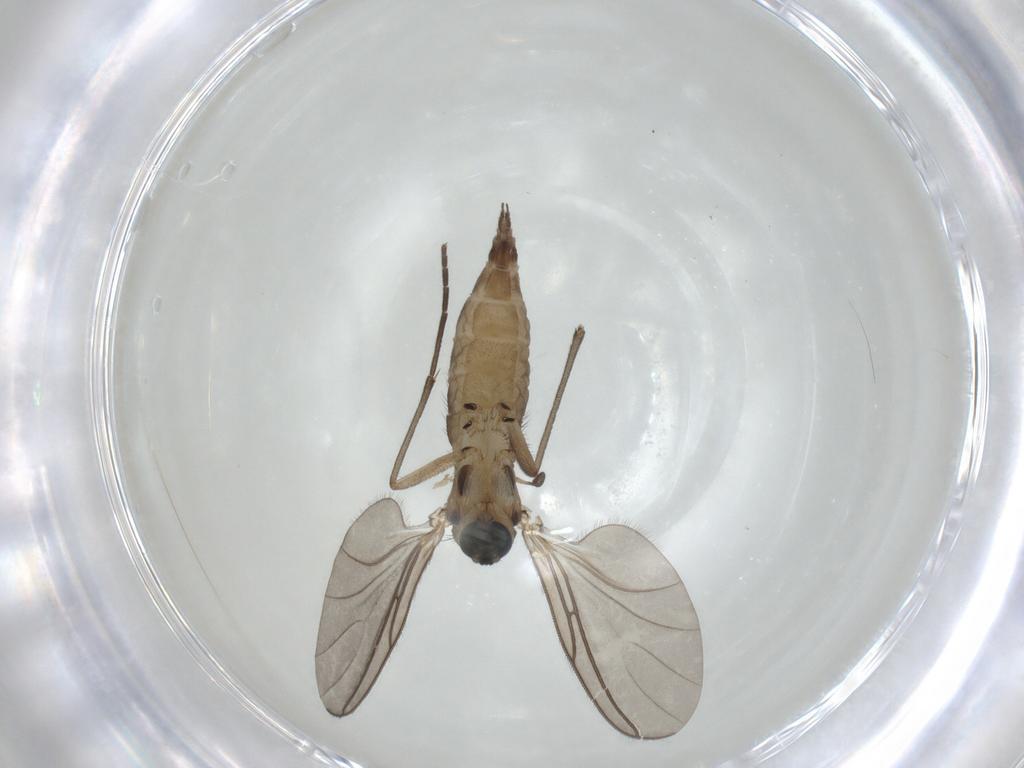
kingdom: Animalia
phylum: Arthropoda
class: Insecta
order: Diptera
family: Sciaridae
